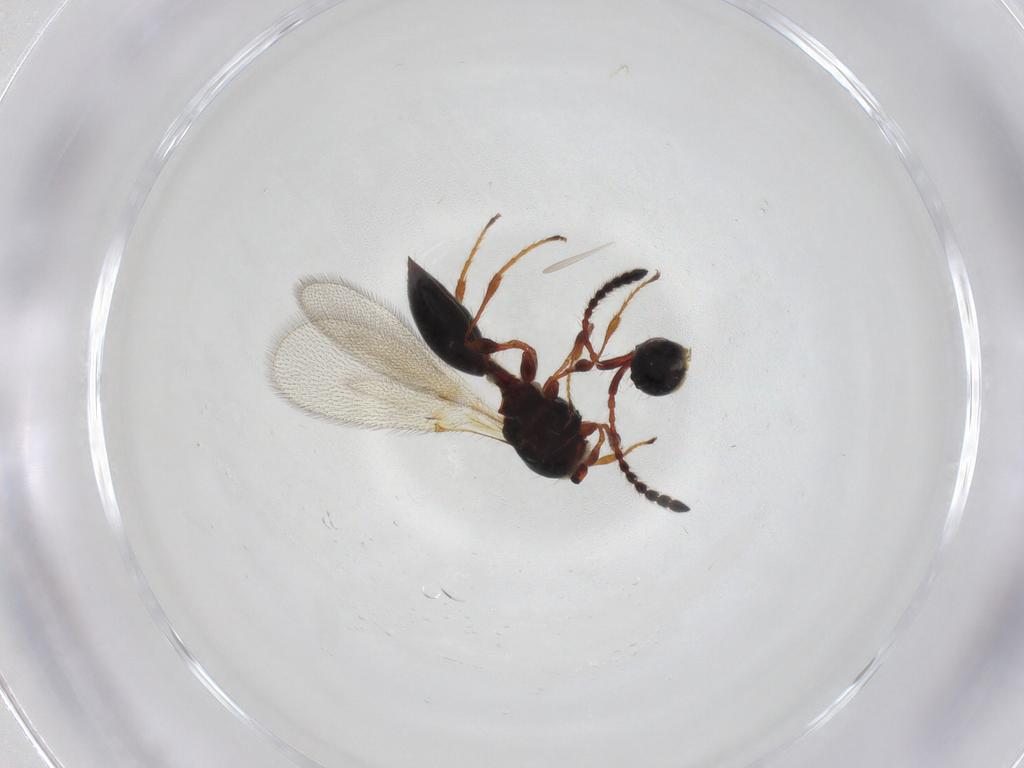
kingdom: Animalia
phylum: Arthropoda
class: Insecta
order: Hymenoptera
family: Diapriidae
